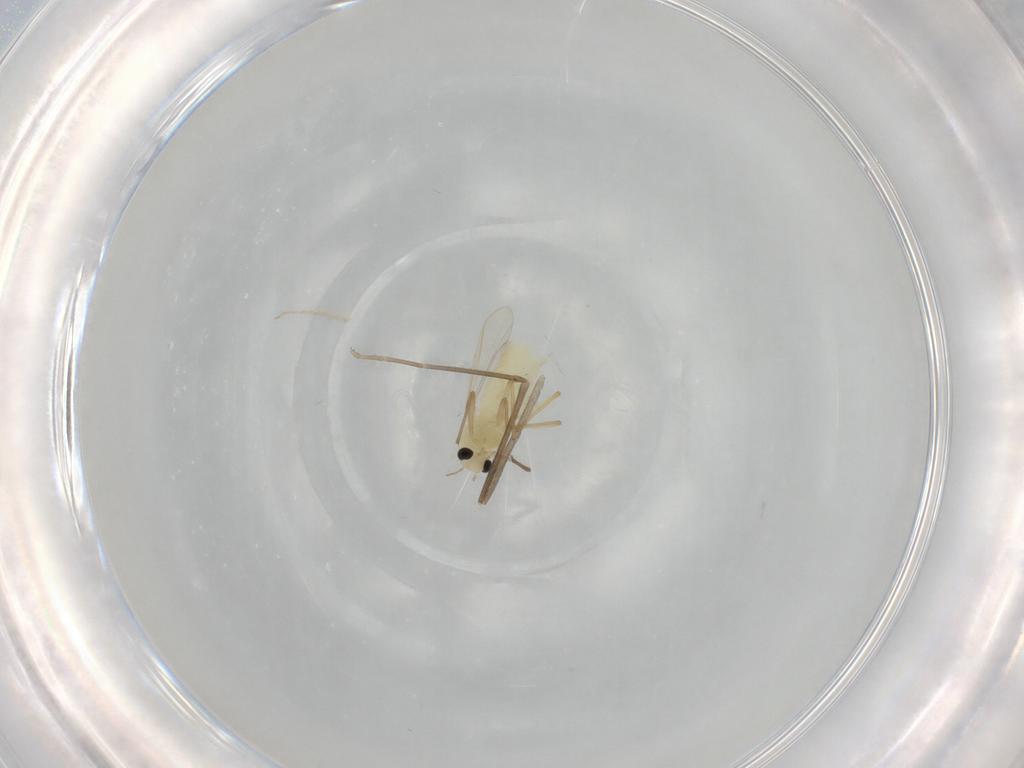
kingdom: Animalia
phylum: Arthropoda
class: Insecta
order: Diptera
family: Chironomidae
